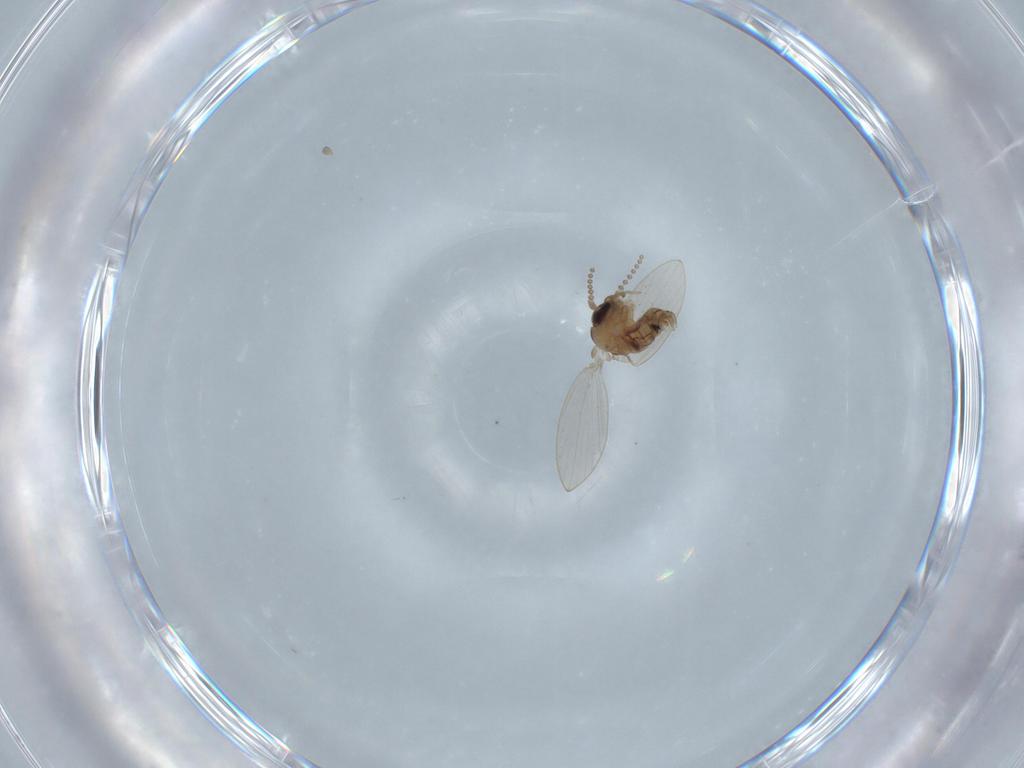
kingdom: Animalia
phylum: Arthropoda
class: Insecta
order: Diptera
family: Psychodidae
